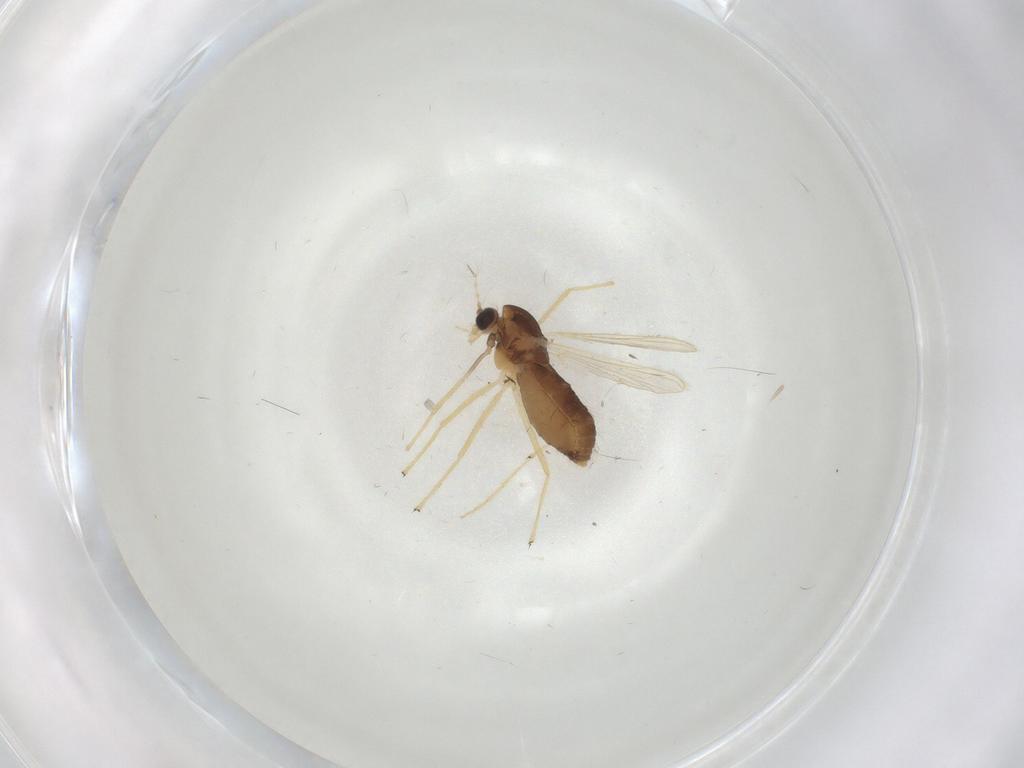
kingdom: Animalia
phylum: Arthropoda
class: Insecta
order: Diptera
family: Chironomidae
